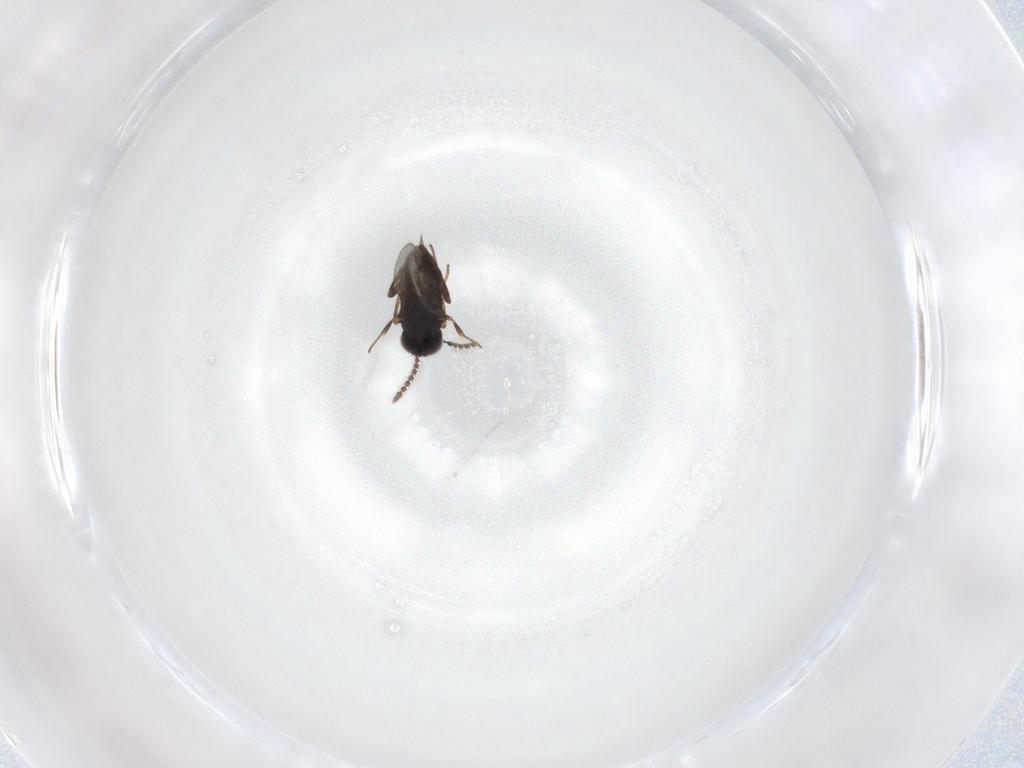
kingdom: Animalia
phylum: Arthropoda
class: Insecta
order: Hymenoptera
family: Encyrtidae
